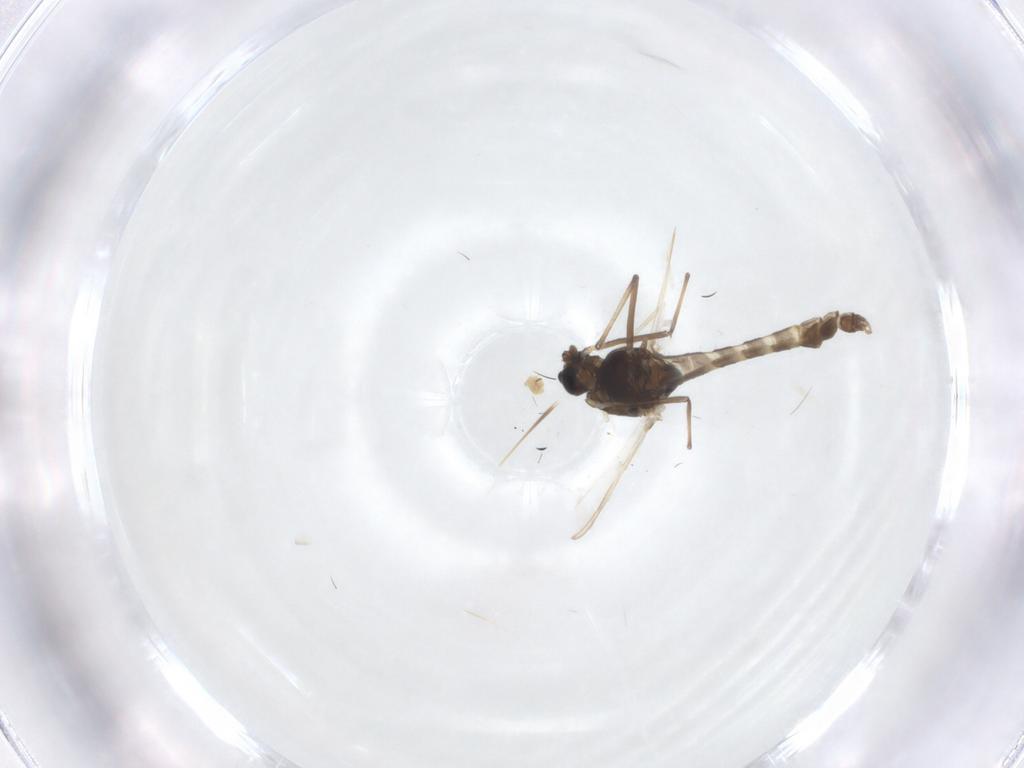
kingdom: Animalia
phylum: Arthropoda
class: Insecta
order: Diptera
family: Chironomidae
